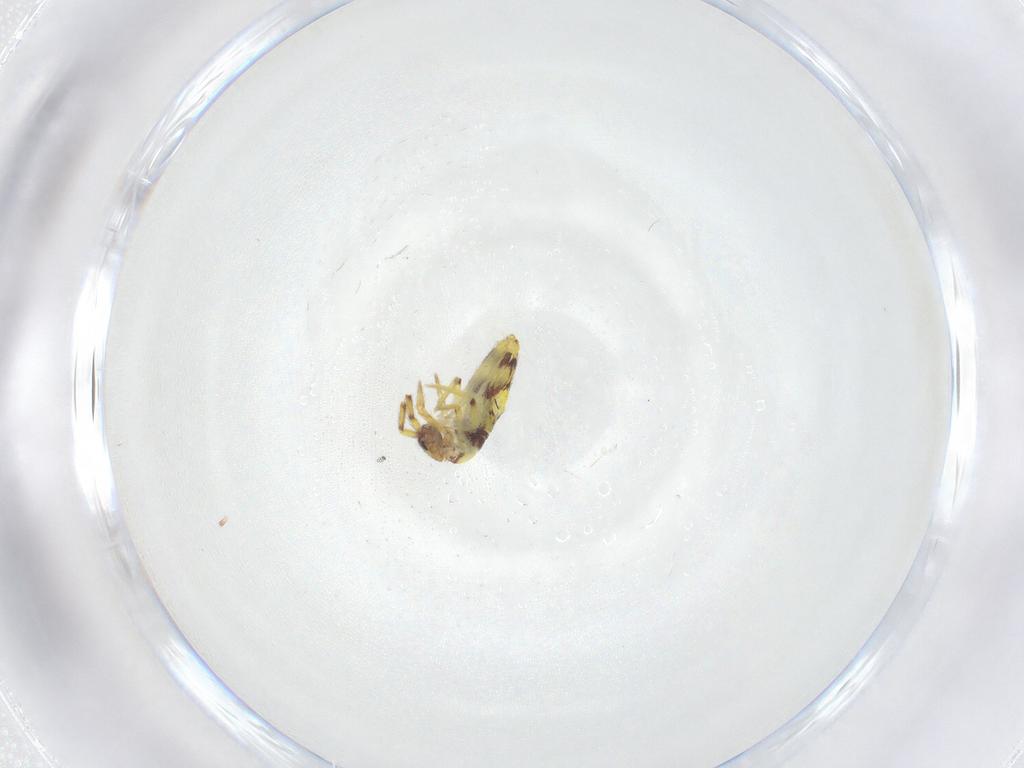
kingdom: Animalia
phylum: Arthropoda
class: Collembola
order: Entomobryomorpha
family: Entomobryidae
